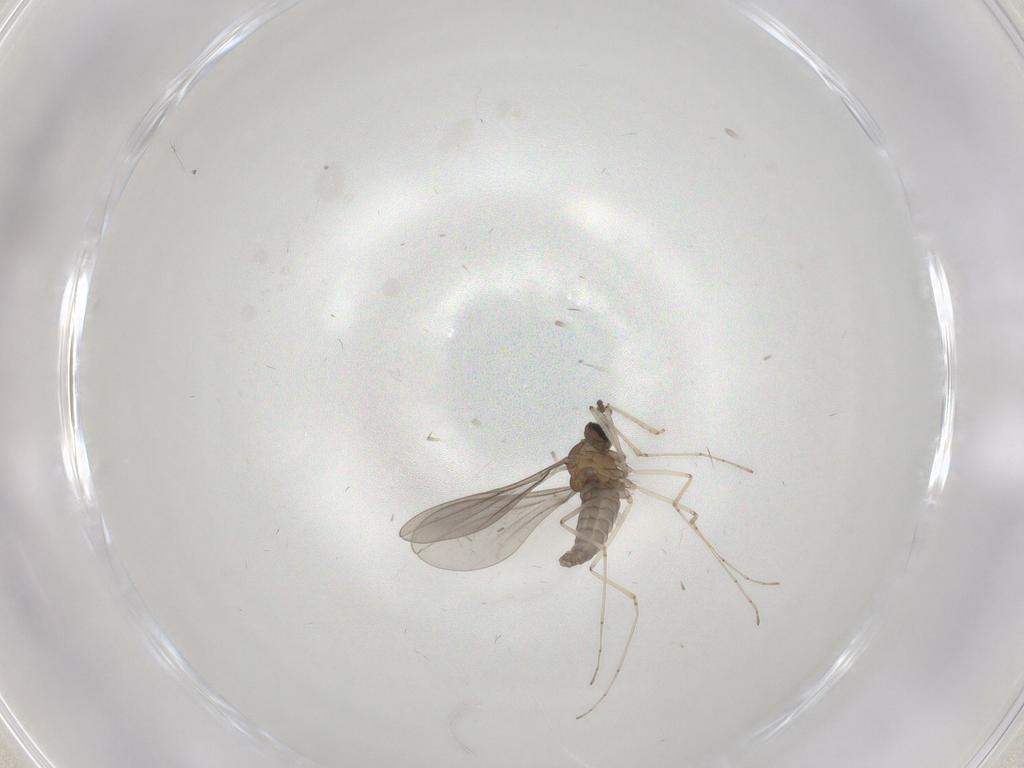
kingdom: Animalia
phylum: Arthropoda
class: Insecta
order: Diptera
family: Cecidomyiidae
